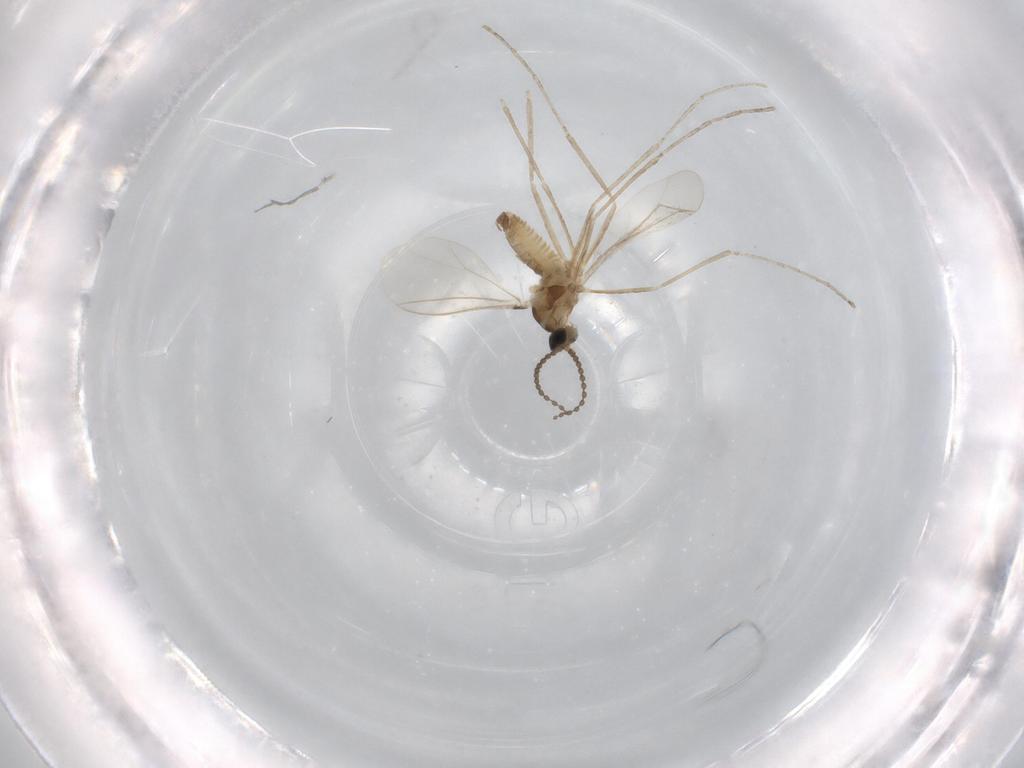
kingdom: Animalia
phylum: Arthropoda
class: Insecta
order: Diptera
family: Cecidomyiidae
